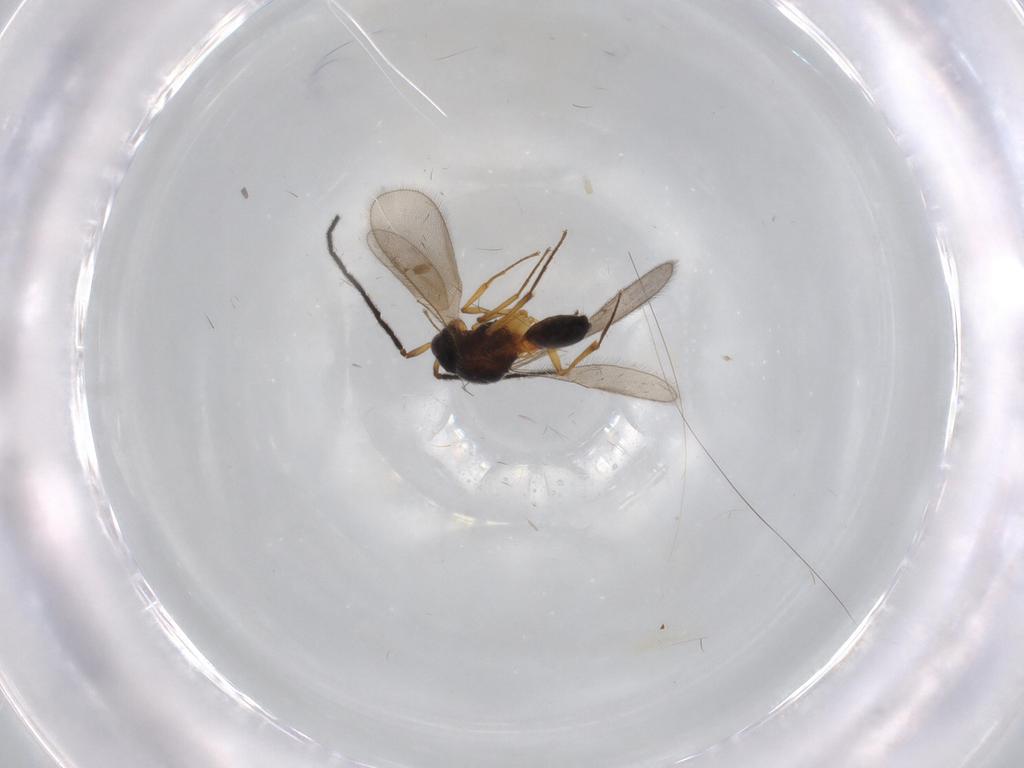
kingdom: Animalia
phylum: Arthropoda
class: Insecta
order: Hymenoptera
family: Scelionidae
